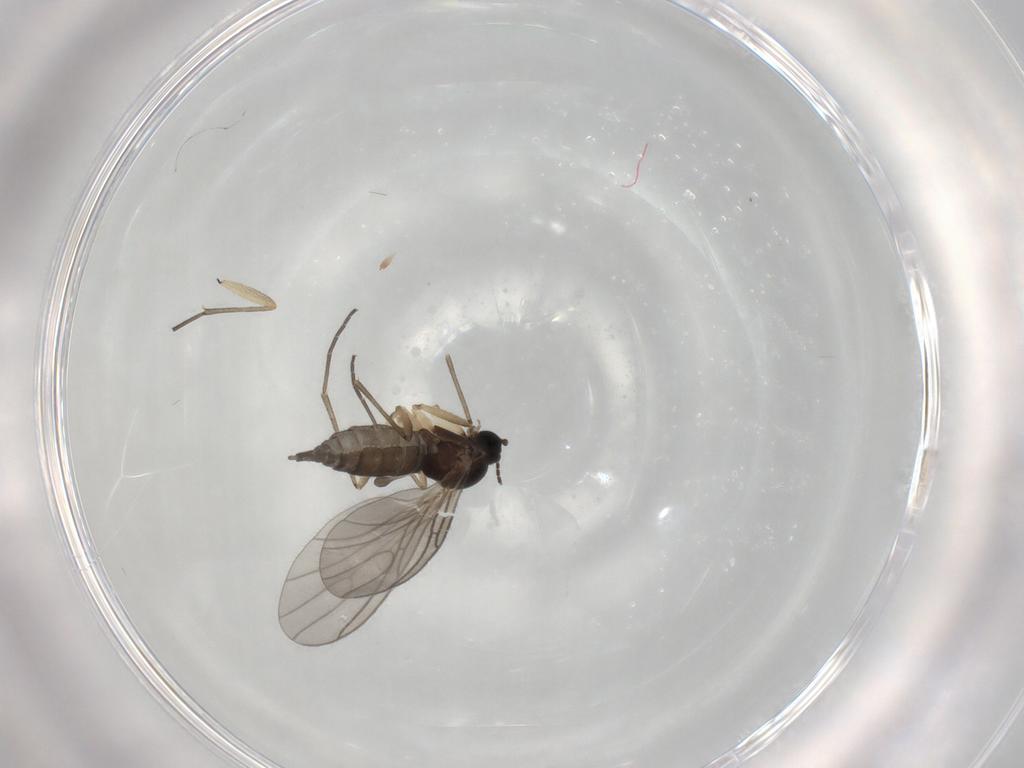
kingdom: Animalia
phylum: Arthropoda
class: Insecta
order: Diptera
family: Sciaridae
